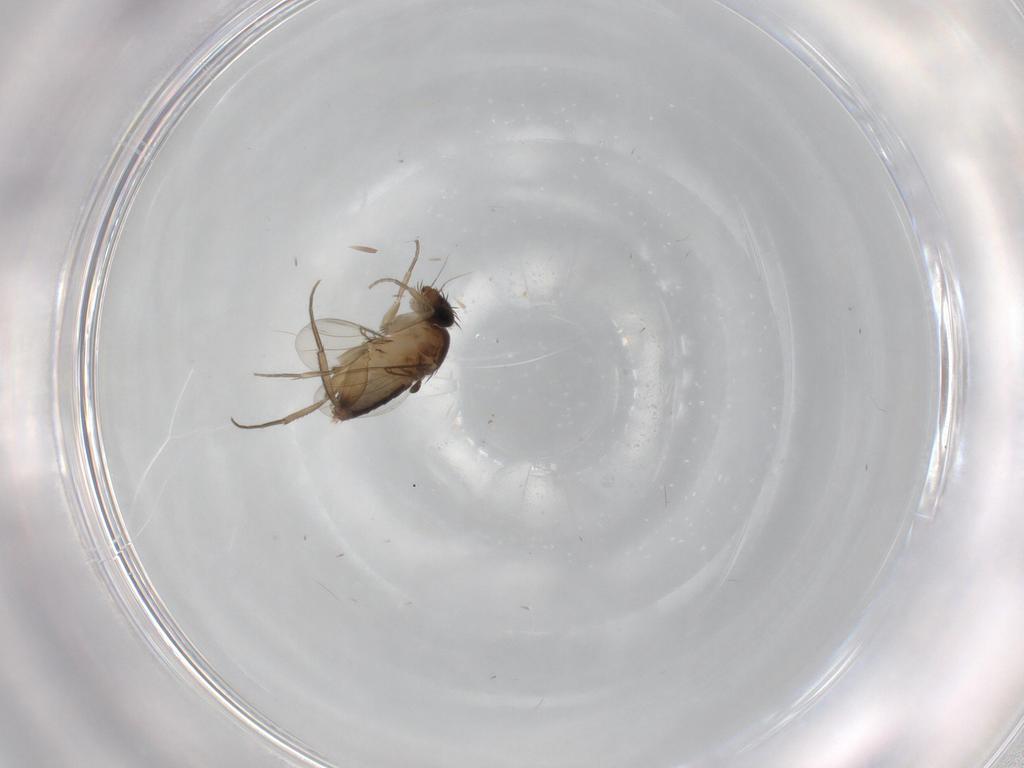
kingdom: Animalia
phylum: Arthropoda
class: Insecta
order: Diptera
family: Phoridae
